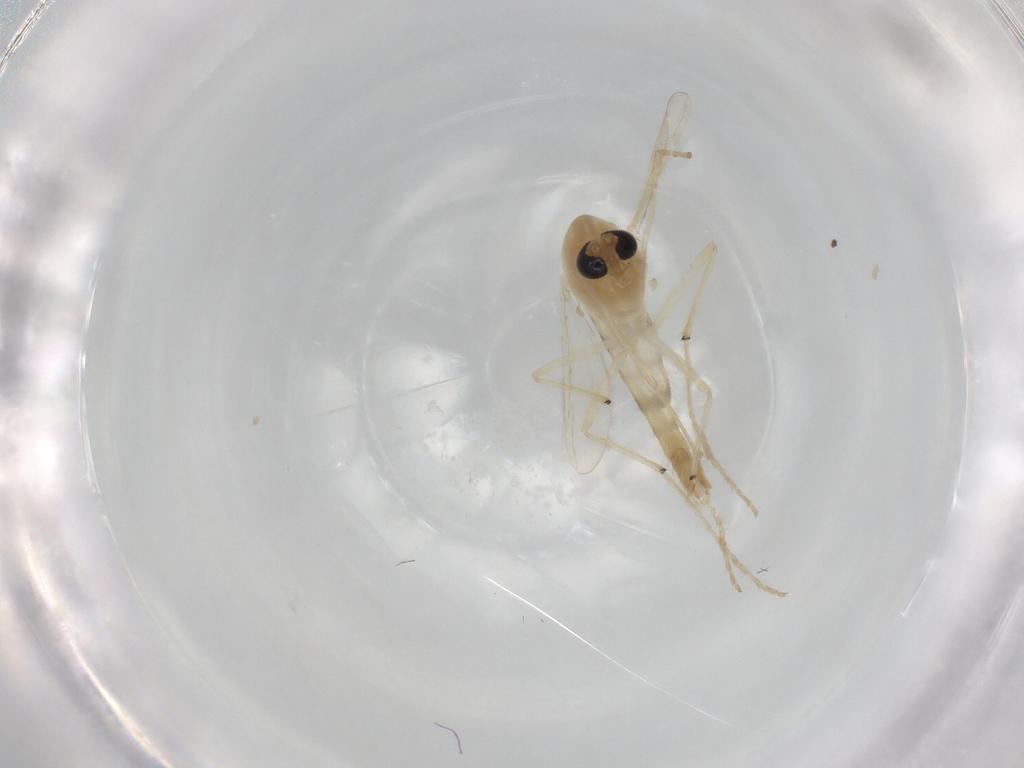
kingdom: Animalia
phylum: Arthropoda
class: Insecta
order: Diptera
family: Chironomidae
